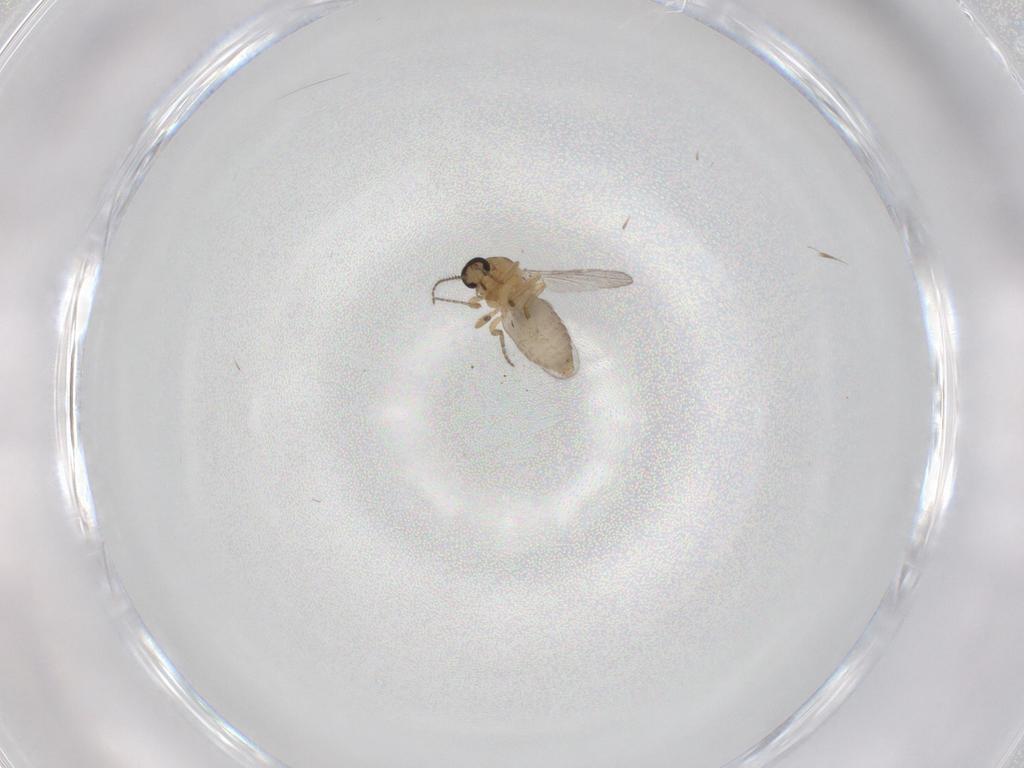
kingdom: Animalia
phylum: Arthropoda
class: Insecta
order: Diptera
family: Ceratopogonidae
